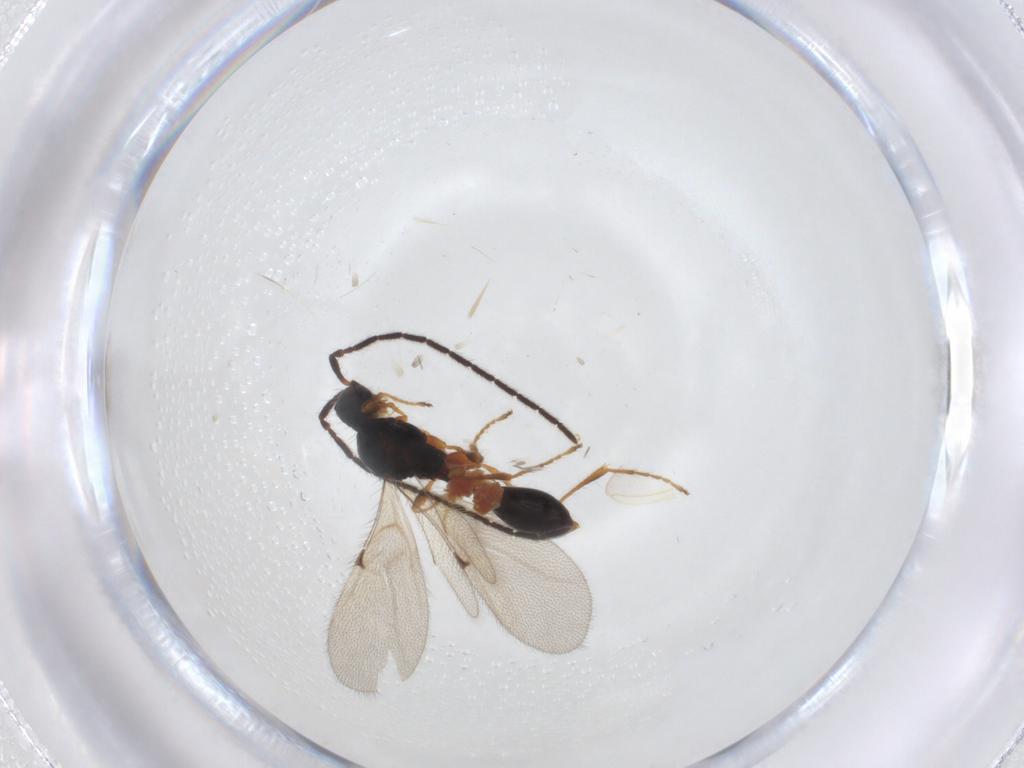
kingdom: Animalia
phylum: Arthropoda
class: Insecta
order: Hymenoptera
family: Diapriidae
